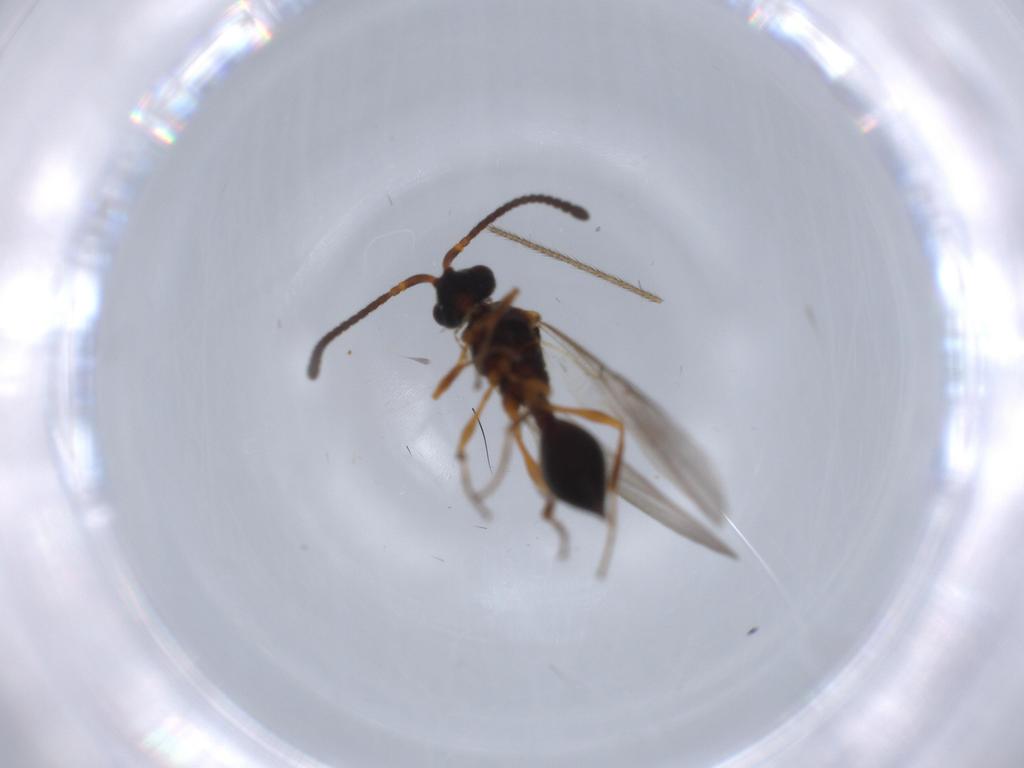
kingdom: Animalia
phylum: Arthropoda
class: Insecta
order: Hymenoptera
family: Diapriidae
